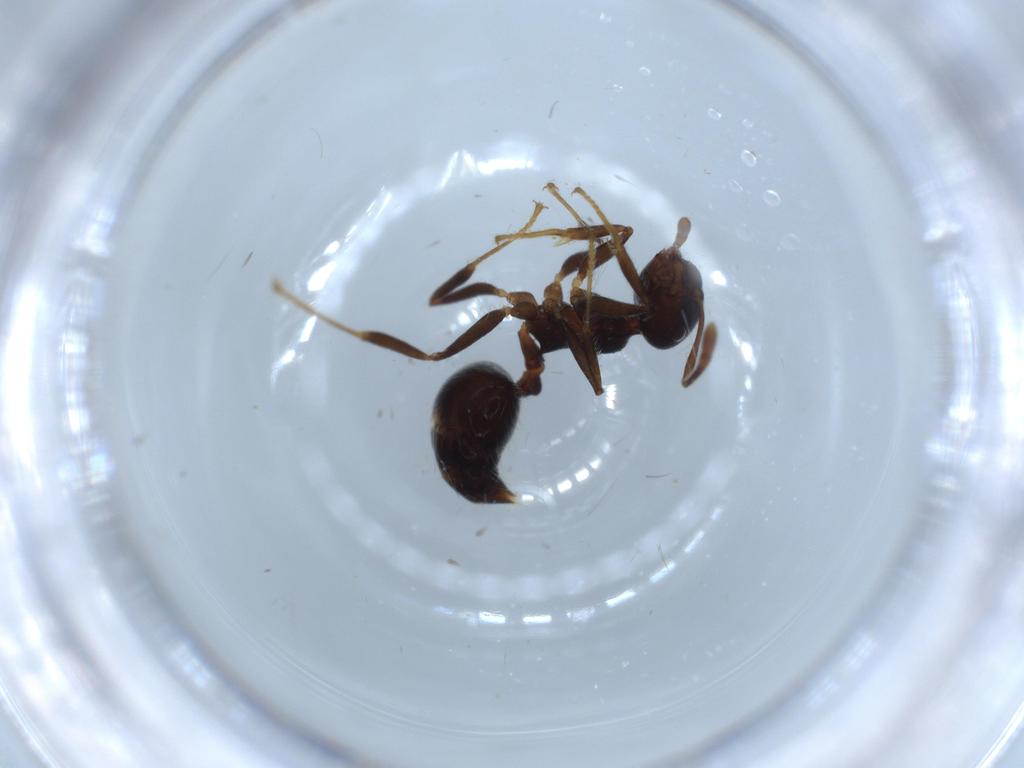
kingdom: Animalia
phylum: Arthropoda
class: Insecta
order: Hymenoptera
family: Formicidae
